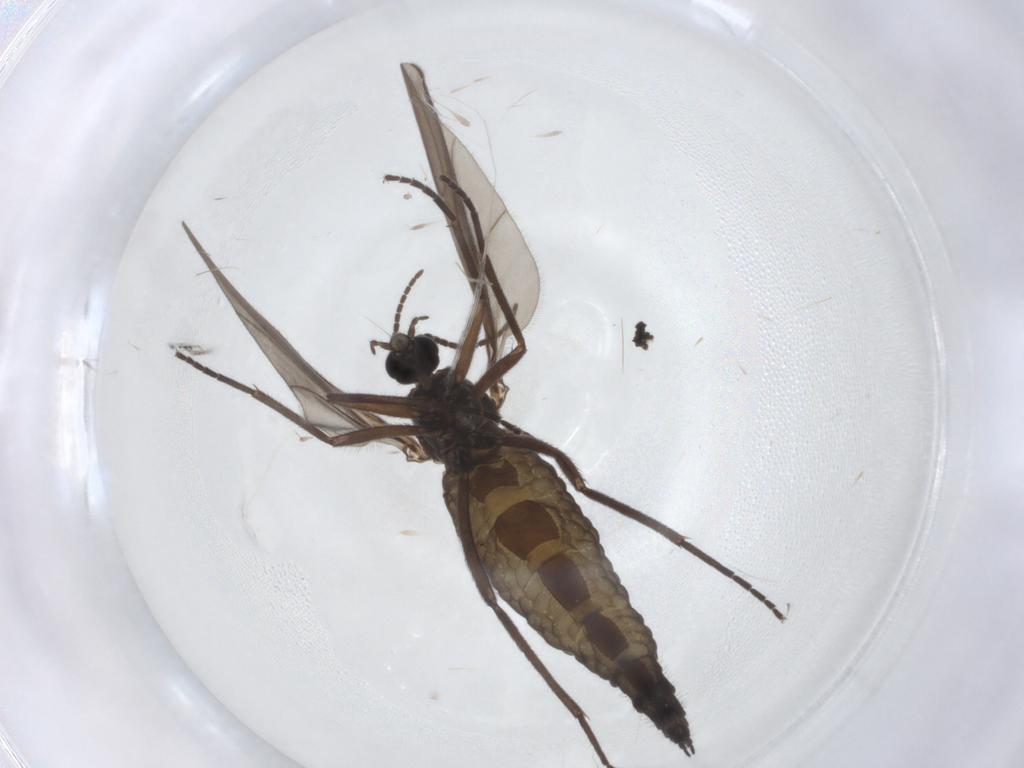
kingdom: Animalia
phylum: Arthropoda
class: Insecta
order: Diptera
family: Cecidomyiidae
